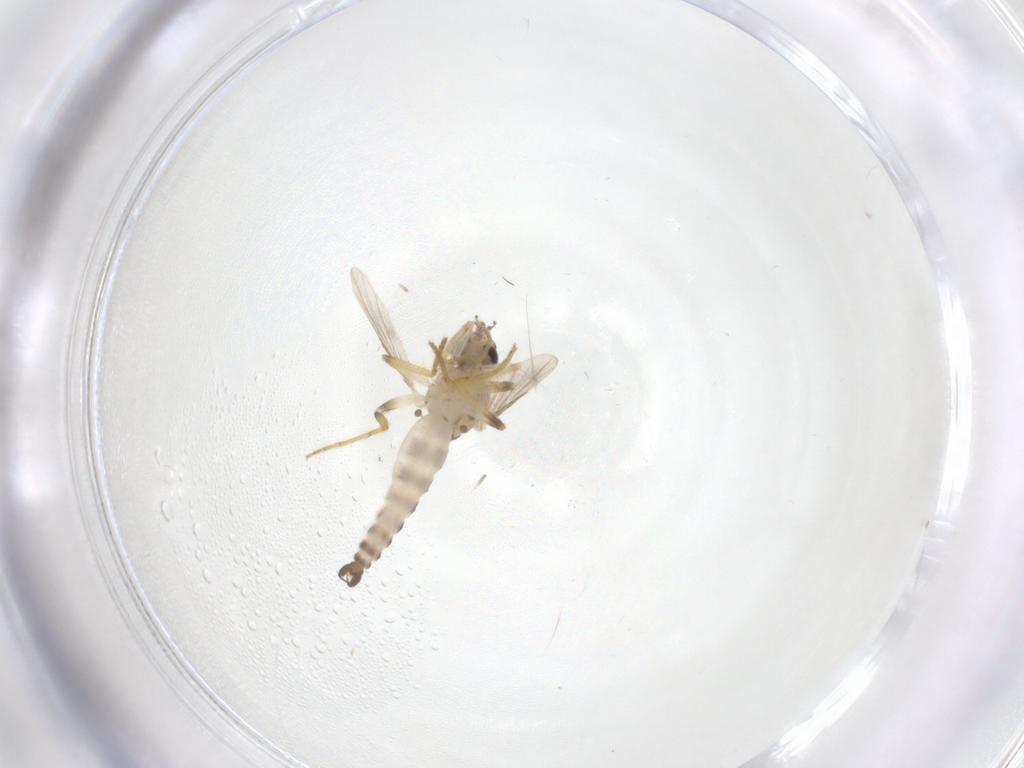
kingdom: Animalia
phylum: Arthropoda
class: Insecta
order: Diptera
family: Ceratopogonidae
